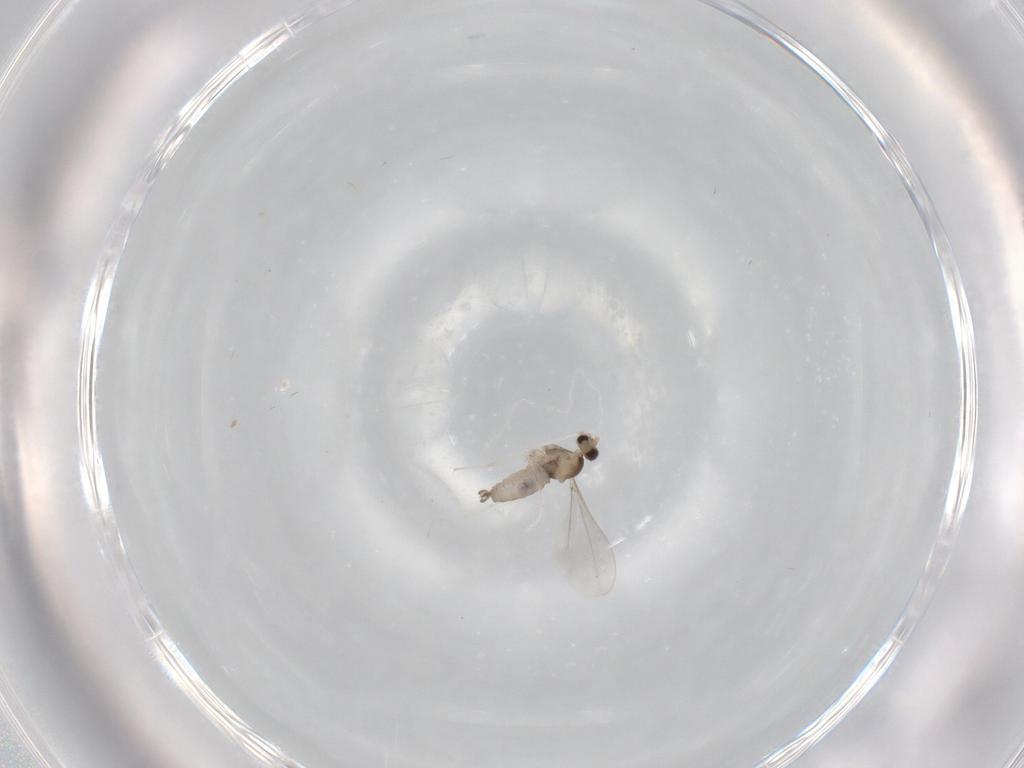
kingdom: Animalia
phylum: Arthropoda
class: Insecta
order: Diptera
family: Cecidomyiidae
